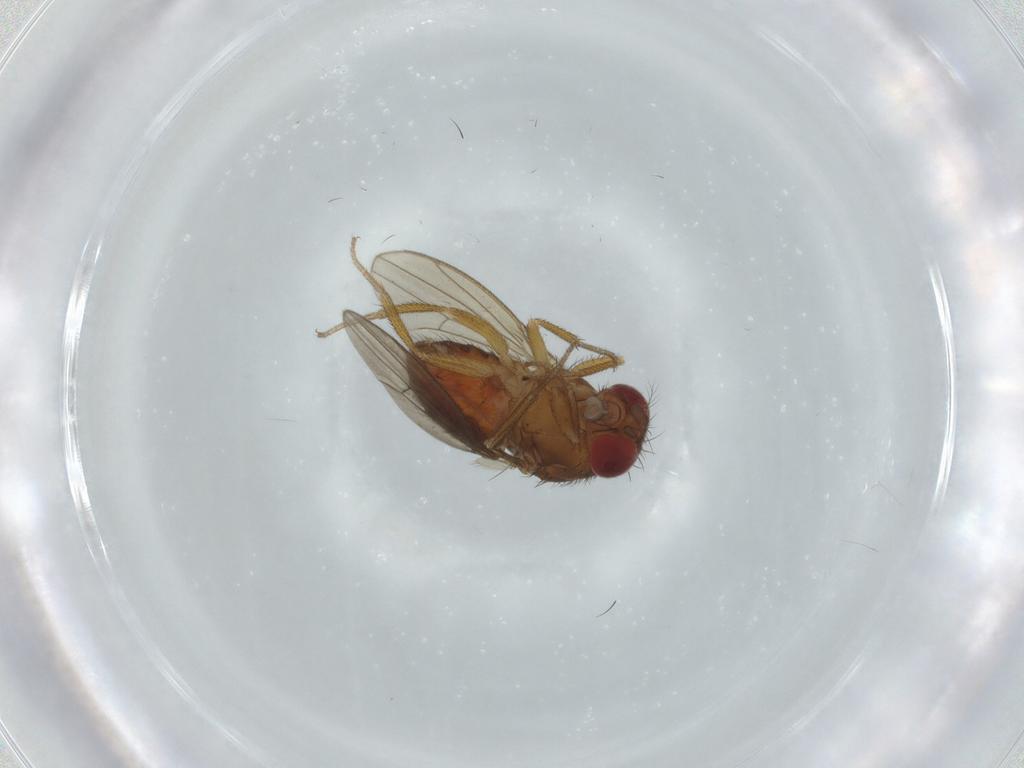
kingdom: Animalia
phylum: Arthropoda
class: Insecta
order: Diptera
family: Drosophilidae
